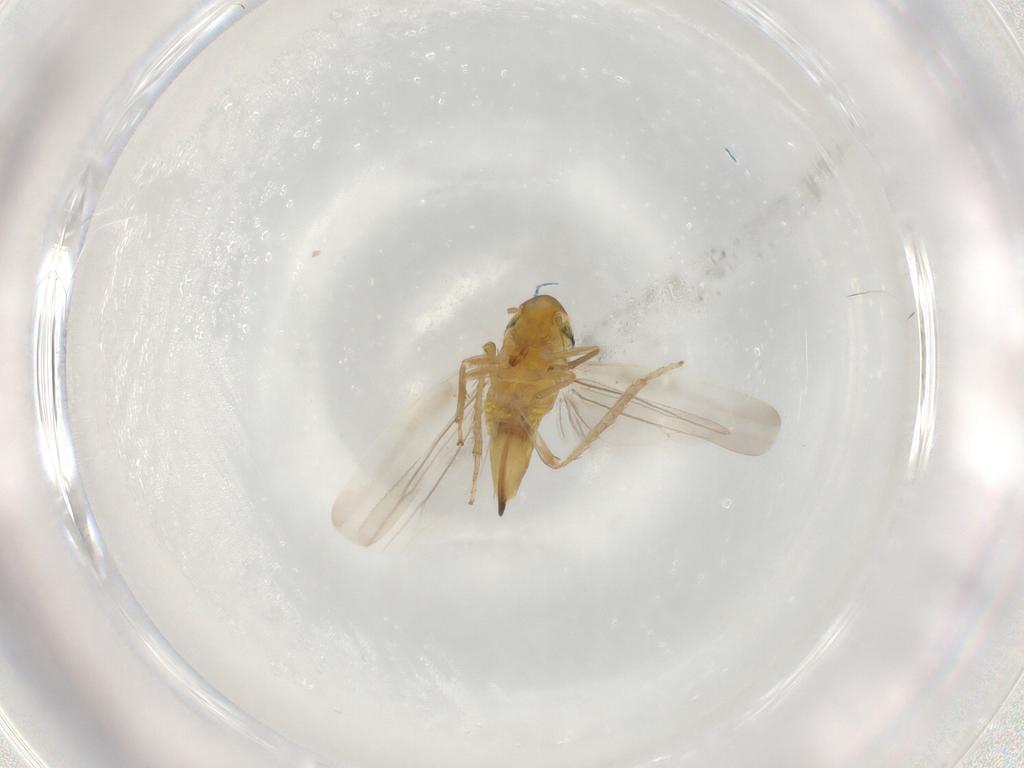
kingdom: Animalia
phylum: Arthropoda
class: Insecta
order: Hemiptera
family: Cicadellidae
